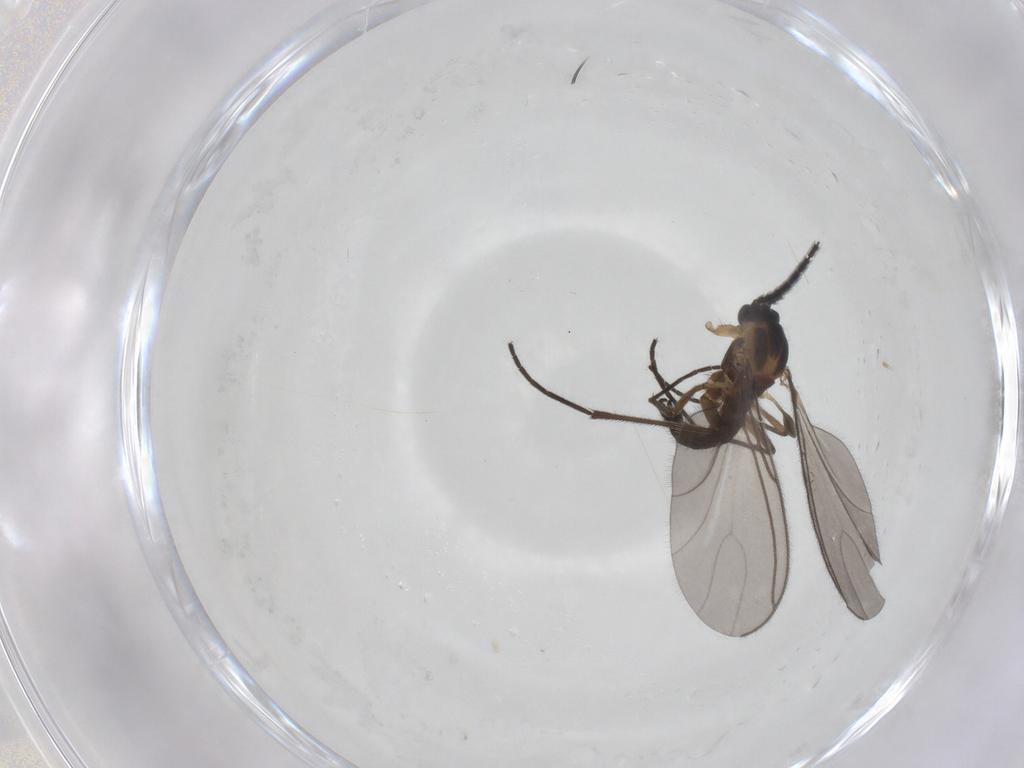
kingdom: Animalia
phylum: Arthropoda
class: Insecta
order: Diptera
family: Sciaridae
